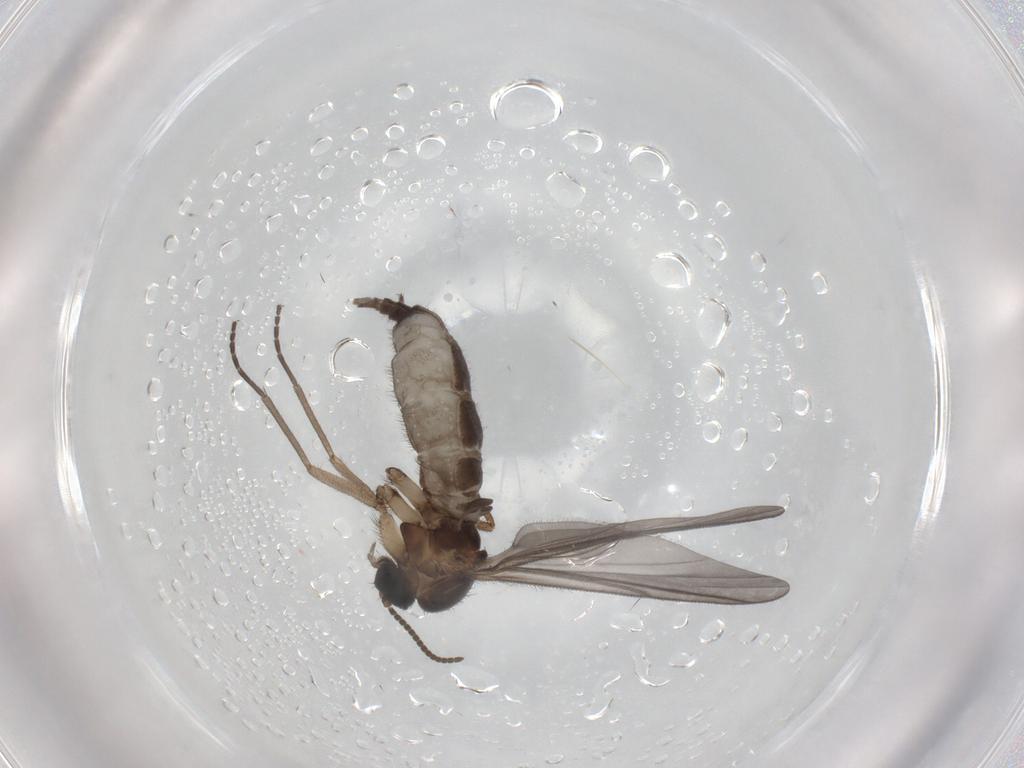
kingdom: Animalia
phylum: Arthropoda
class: Insecta
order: Diptera
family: Sciaridae
